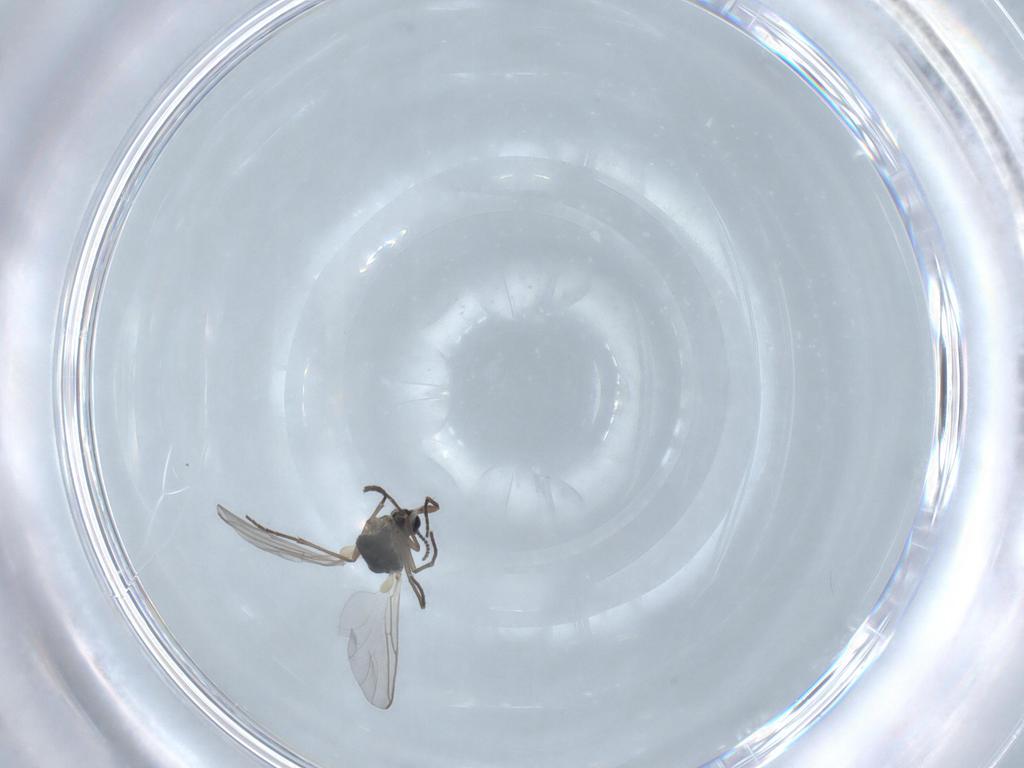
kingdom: Animalia
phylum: Arthropoda
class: Insecta
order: Diptera
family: Sciaridae
